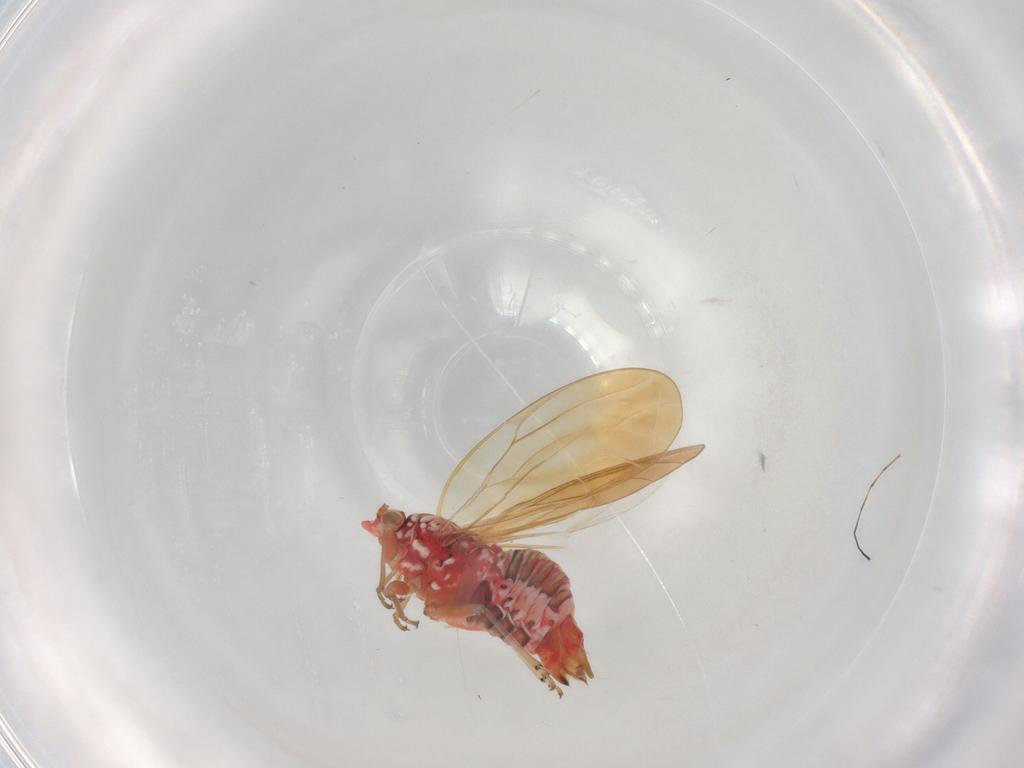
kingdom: Animalia
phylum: Arthropoda
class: Insecta
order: Hemiptera
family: Psyllidae
